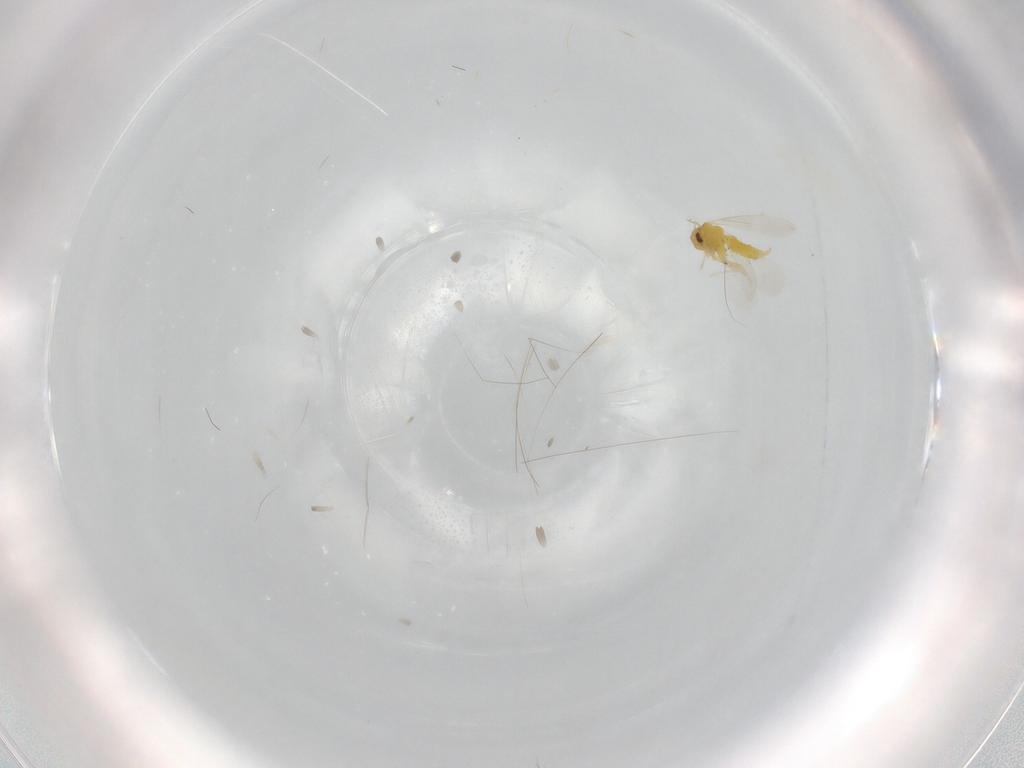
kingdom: Animalia
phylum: Arthropoda
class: Insecta
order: Hemiptera
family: Aleyrodidae
